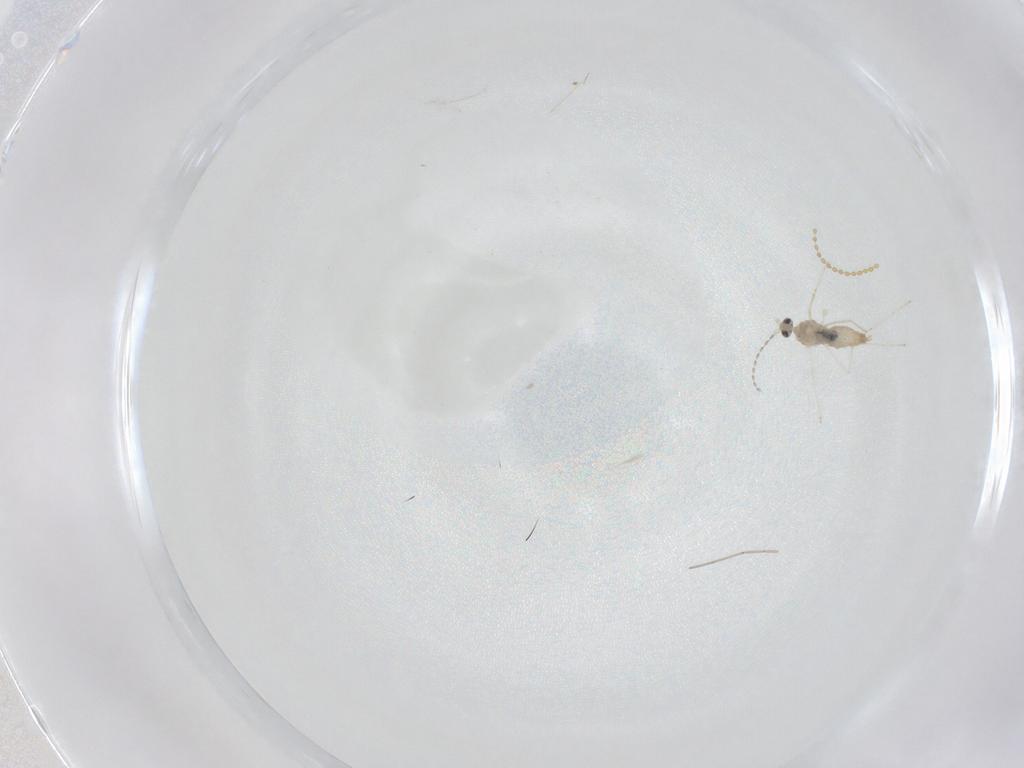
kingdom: Animalia
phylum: Arthropoda
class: Insecta
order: Diptera
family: Cecidomyiidae
